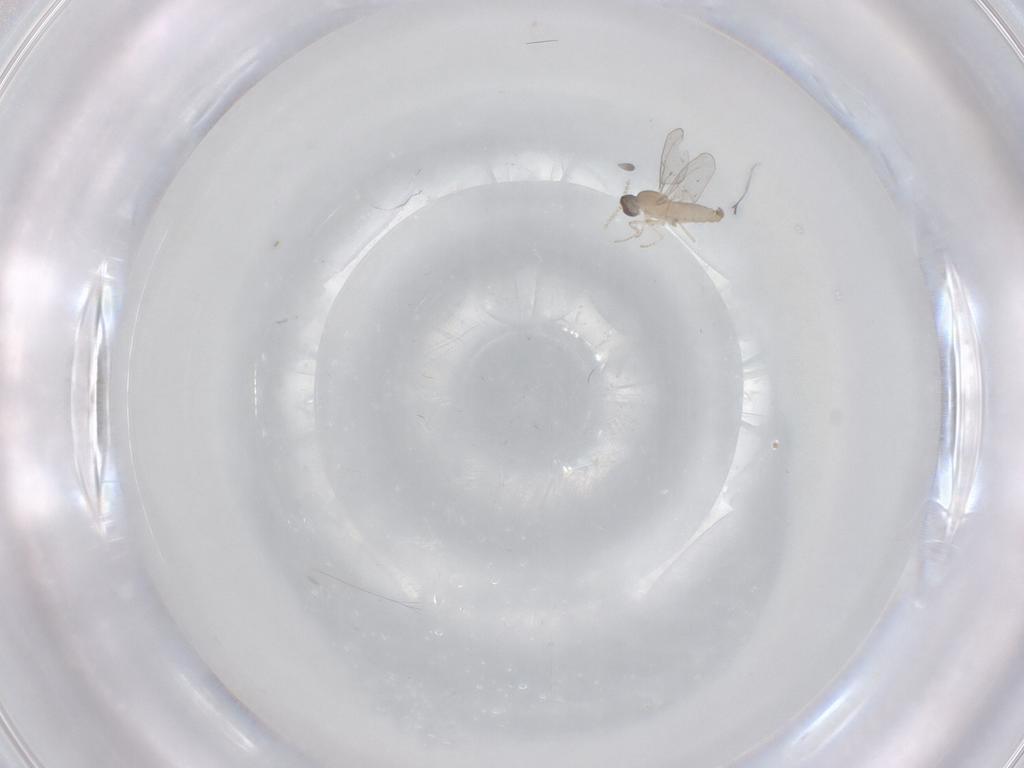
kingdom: Animalia
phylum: Arthropoda
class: Insecta
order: Diptera
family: Cecidomyiidae
